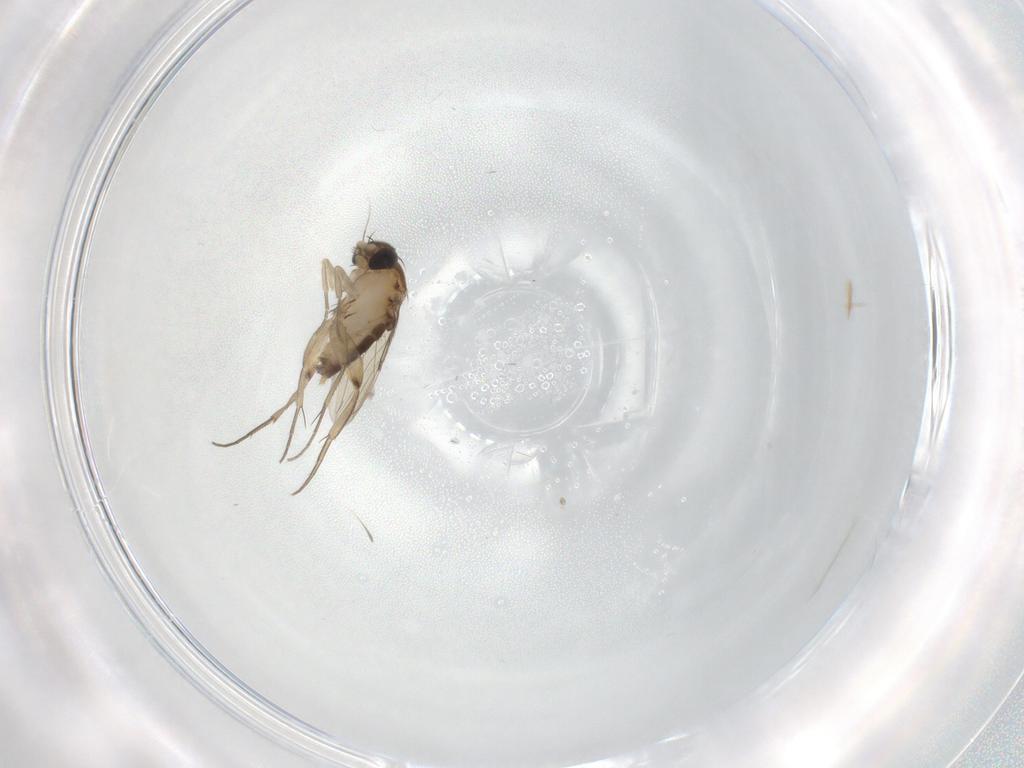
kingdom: Animalia
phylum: Arthropoda
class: Insecta
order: Diptera
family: Phoridae
